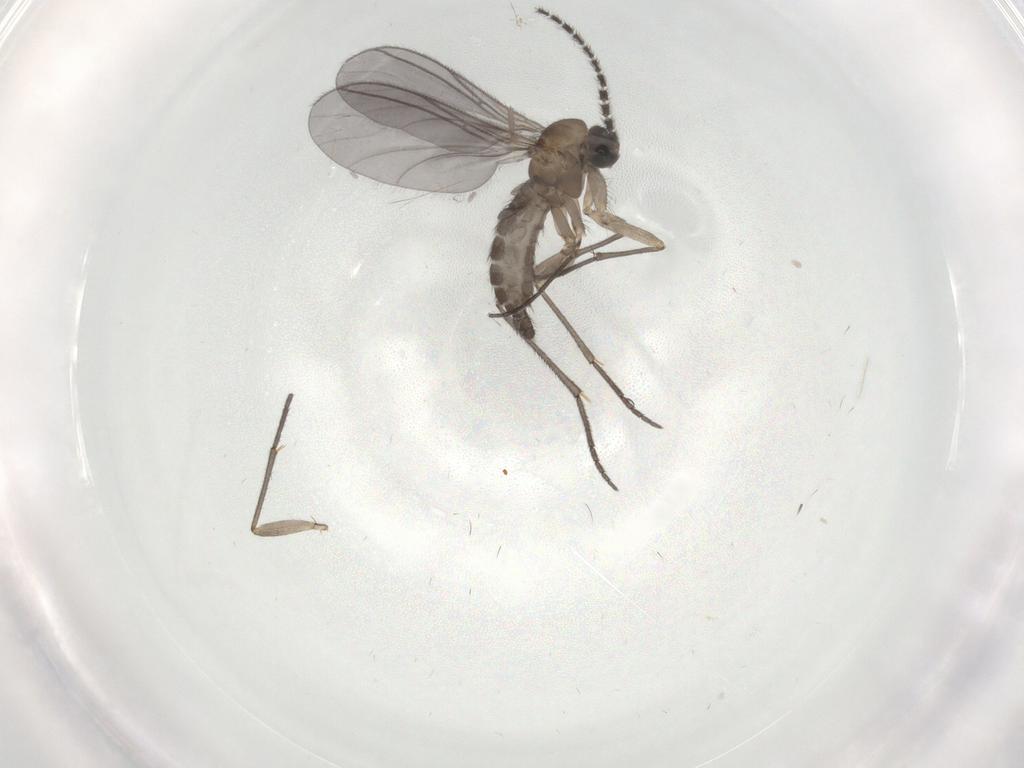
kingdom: Animalia
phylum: Arthropoda
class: Insecta
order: Diptera
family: Sciaridae
